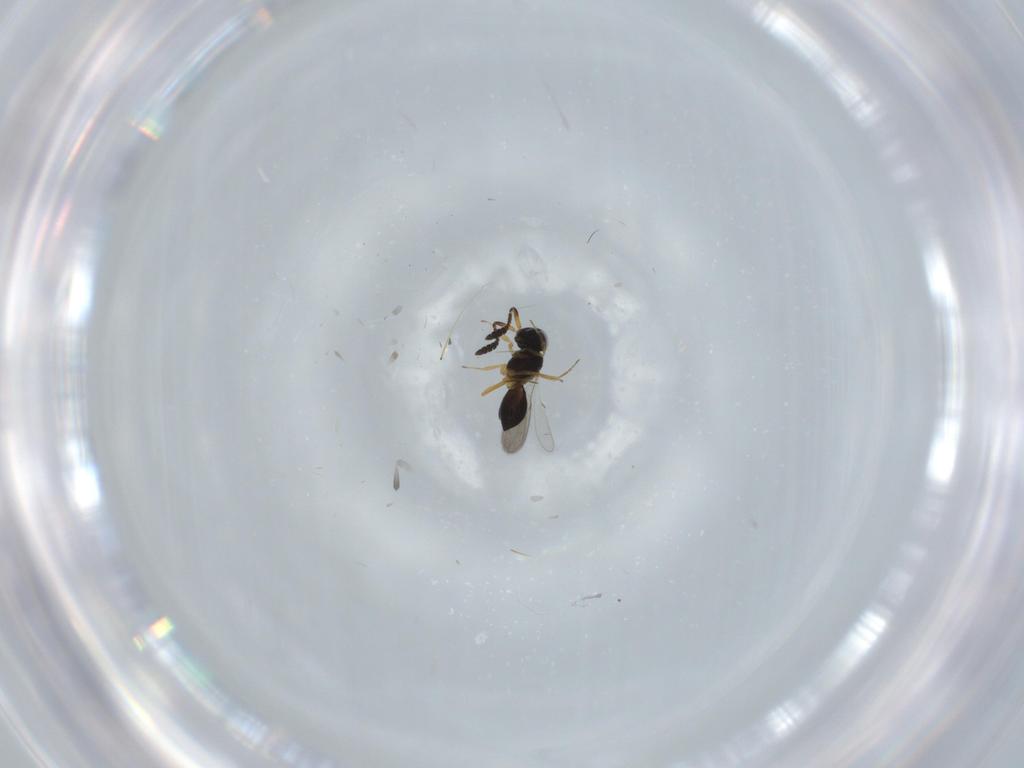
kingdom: Animalia
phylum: Arthropoda
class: Insecta
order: Hymenoptera
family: Scelionidae
